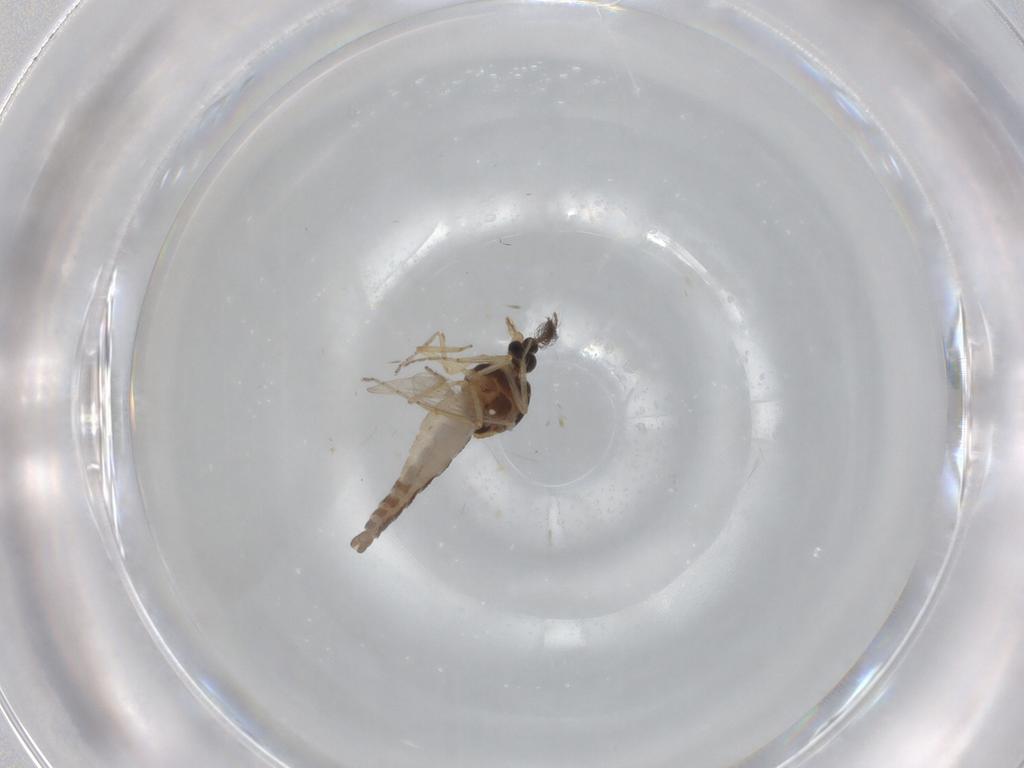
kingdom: Animalia
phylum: Arthropoda
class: Insecta
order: Diptera
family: Ceratopogonidae
